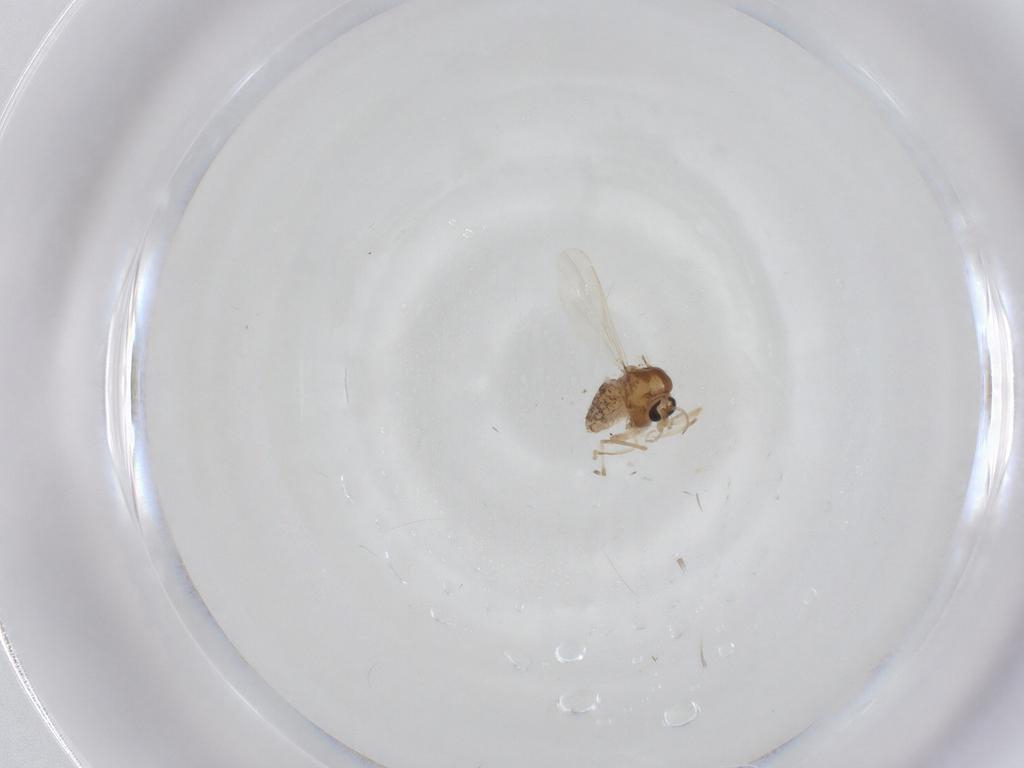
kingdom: Animalia
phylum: Arthropoda
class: Insecta
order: Diptera
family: Chironomidae
